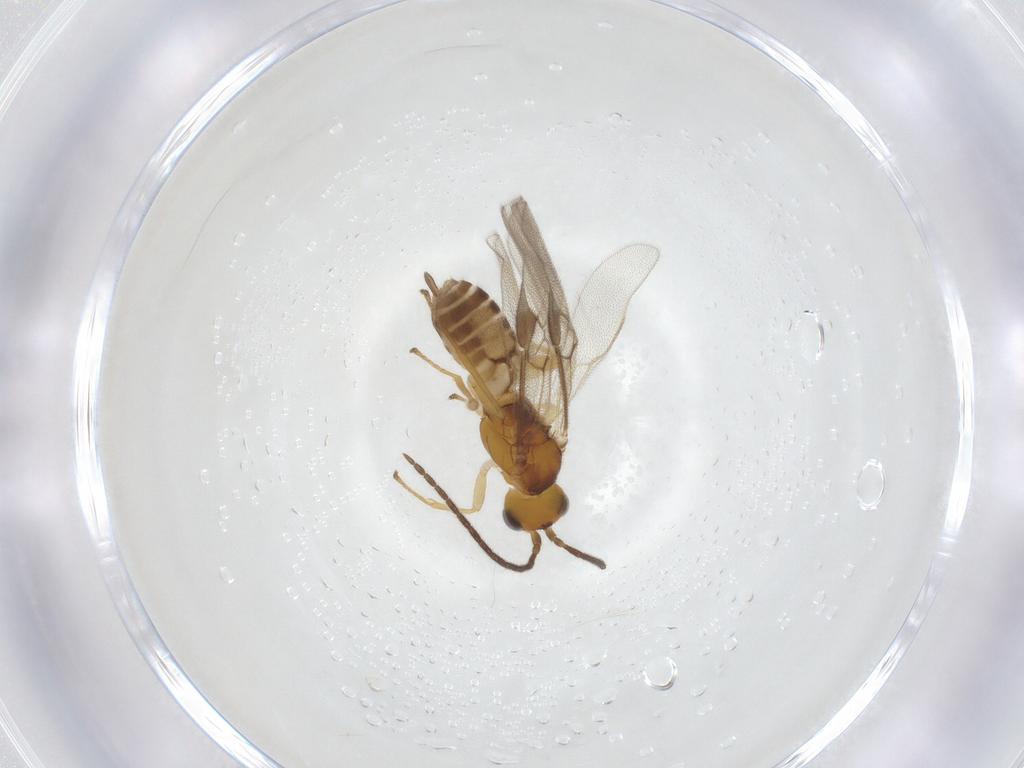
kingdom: Animalia
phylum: Arthropoda
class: Insecta
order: Hymenoptera
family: Braconidae
